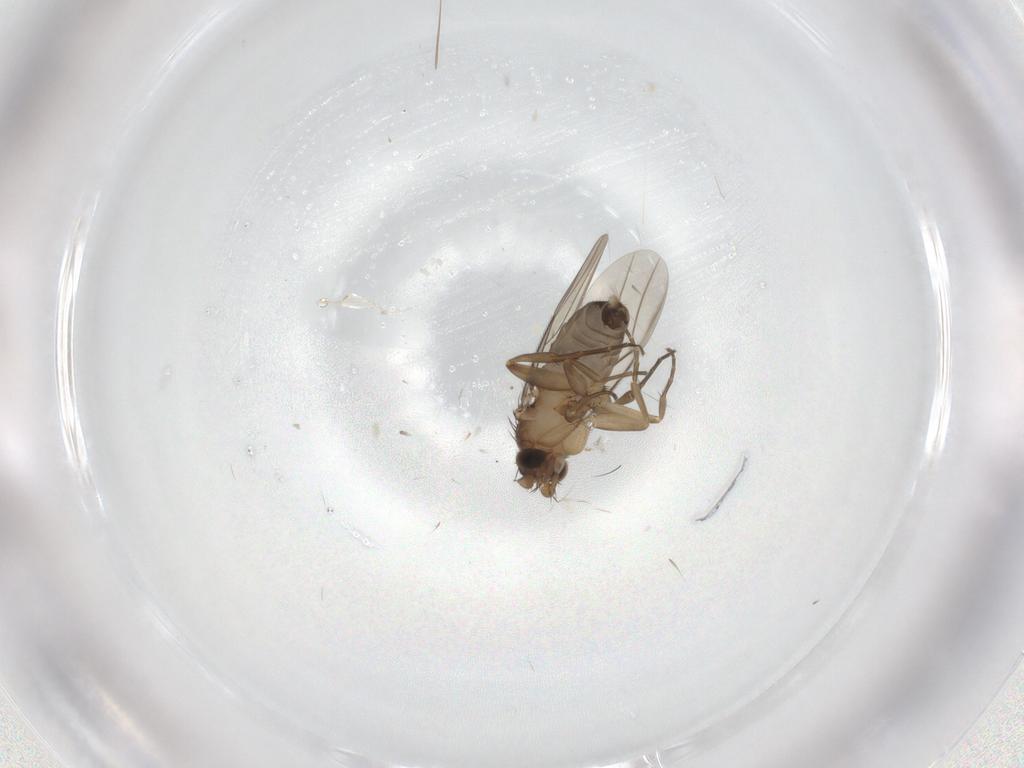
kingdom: Animalia
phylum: Arthropoda
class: Insecta
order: Diptera
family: Phoridae
